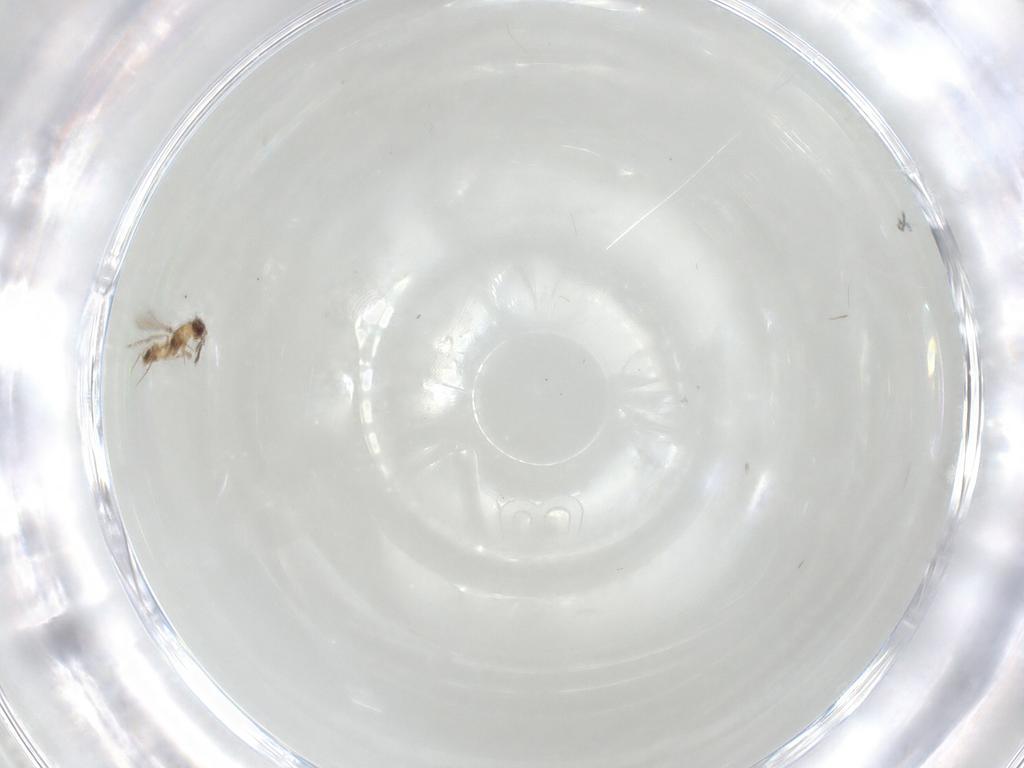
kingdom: Animalia
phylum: Arthropoda
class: Insecta
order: Hymenoptera
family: Mymaridae
